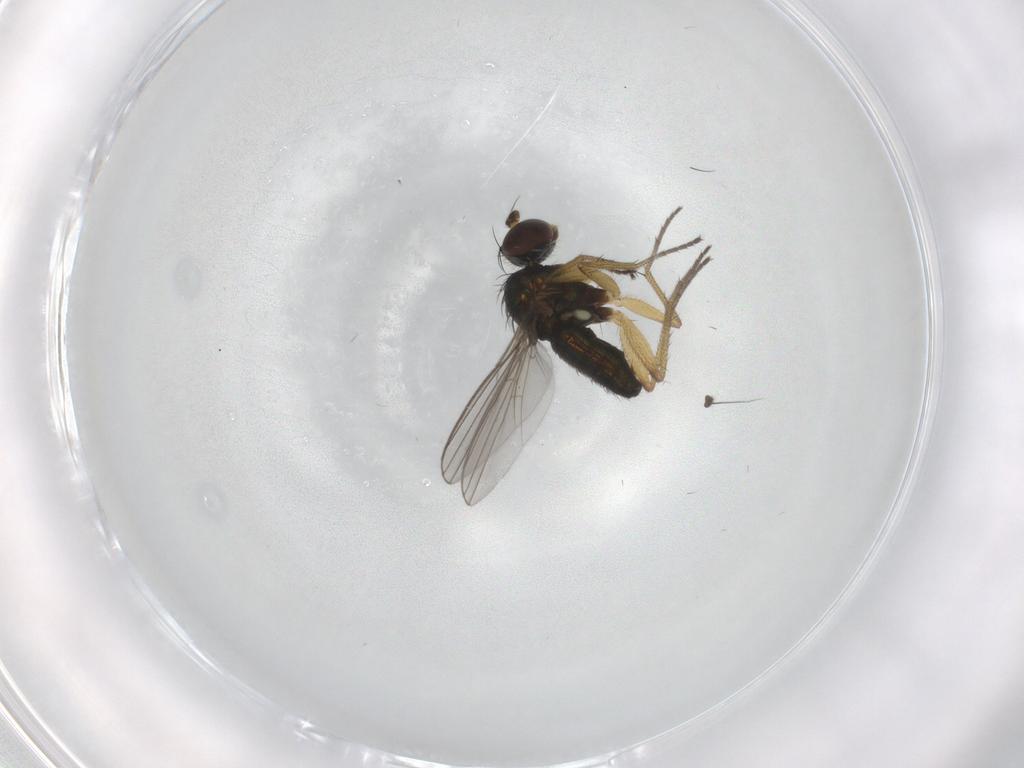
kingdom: Animalia
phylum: Arthropoda
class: Insecta
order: Diptera
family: Dolichopodidae
